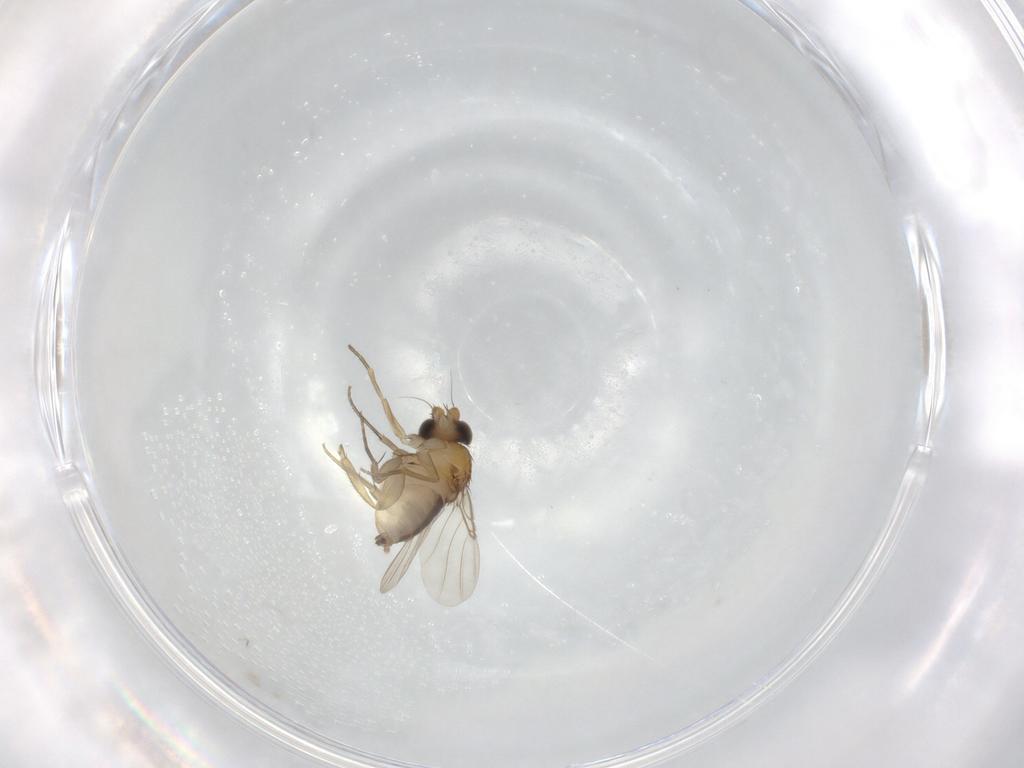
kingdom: Animalia
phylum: Arthropoda
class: Insecta
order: Diptera
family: Phoridae
